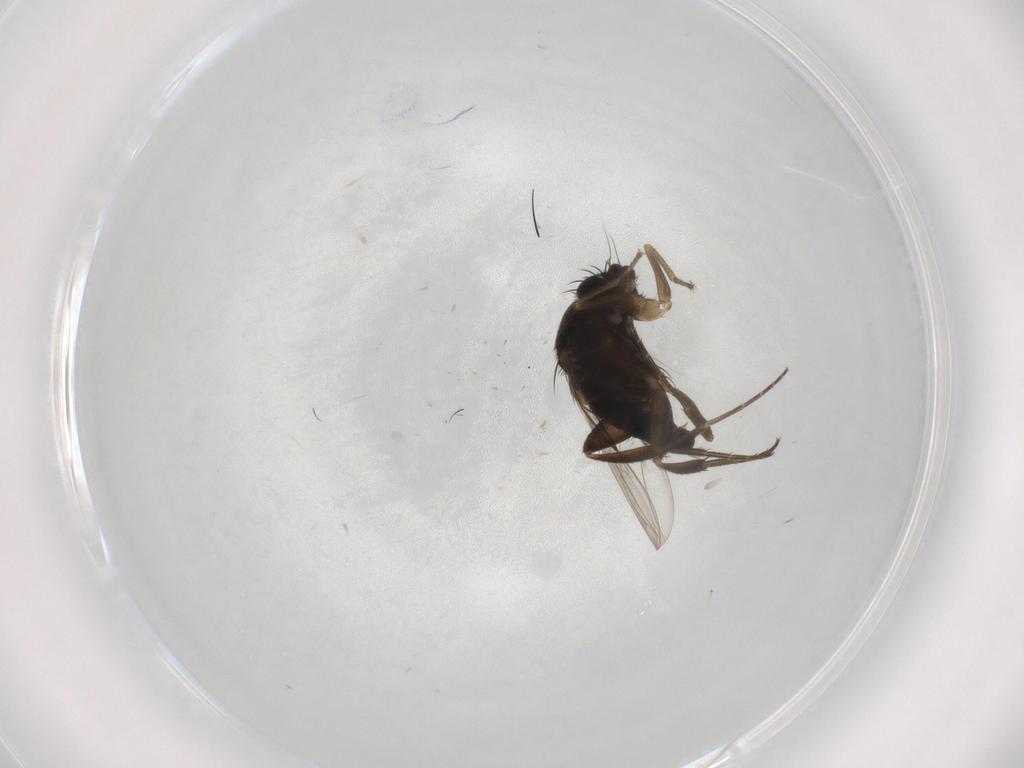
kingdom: Animalia
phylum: Arthropoda
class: Insecta
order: Diptera
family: Phoridae
